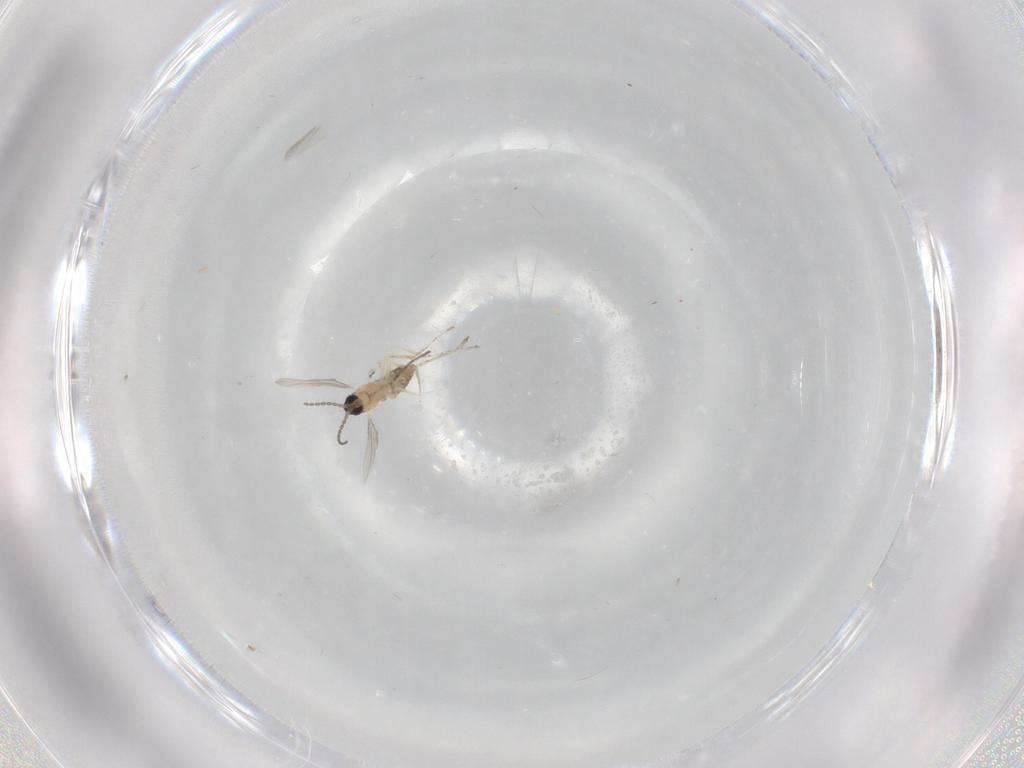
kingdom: Animalia
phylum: Arthropoda
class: Insecta
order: Diptera
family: Cecidomyiidae
